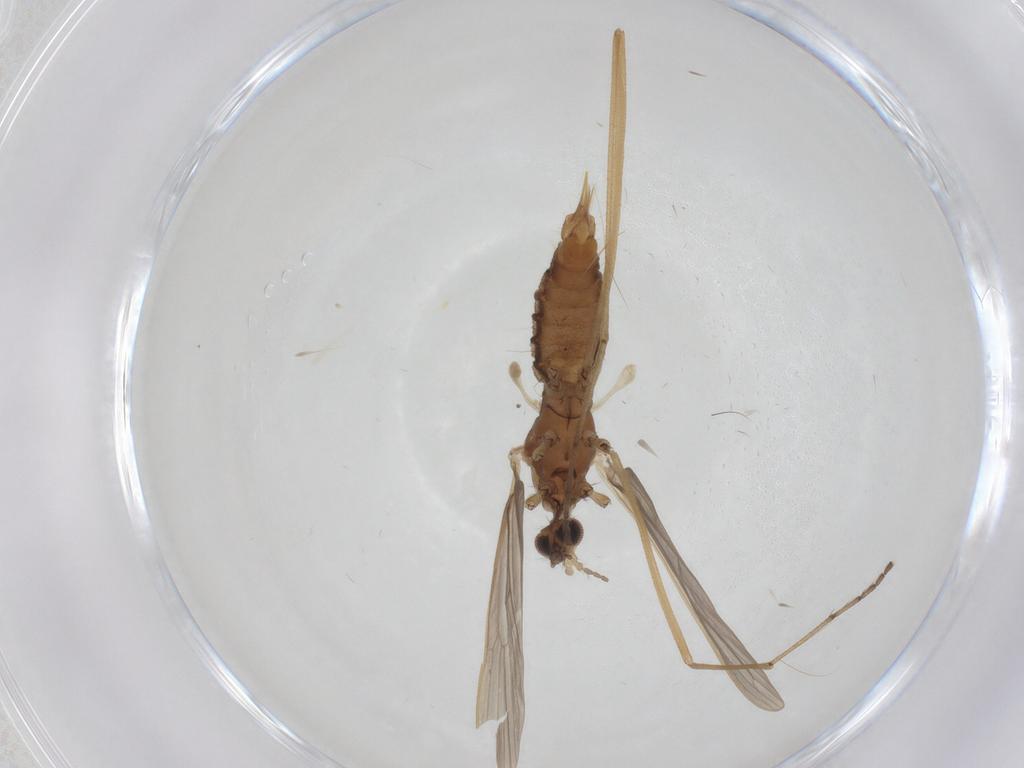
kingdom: Animalia
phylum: Arthropoda
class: Insecta
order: Diptera
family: Limoniidae
